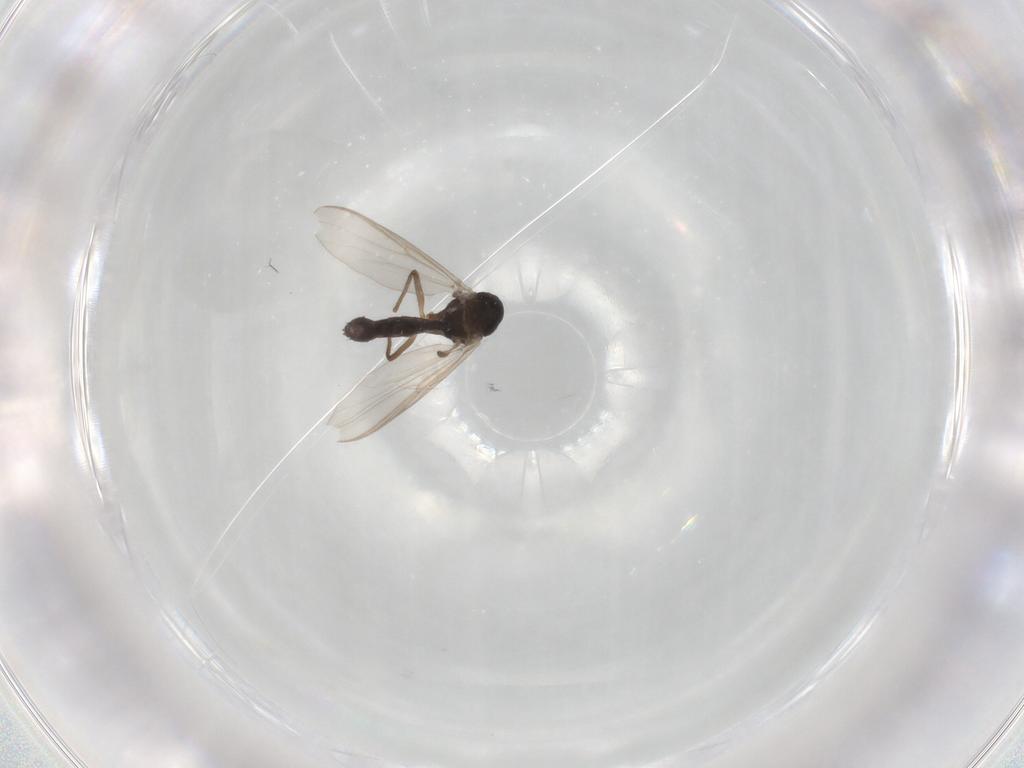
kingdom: Animalia
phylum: Arthropoda
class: Insecta
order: Diptera
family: Chironomidae
